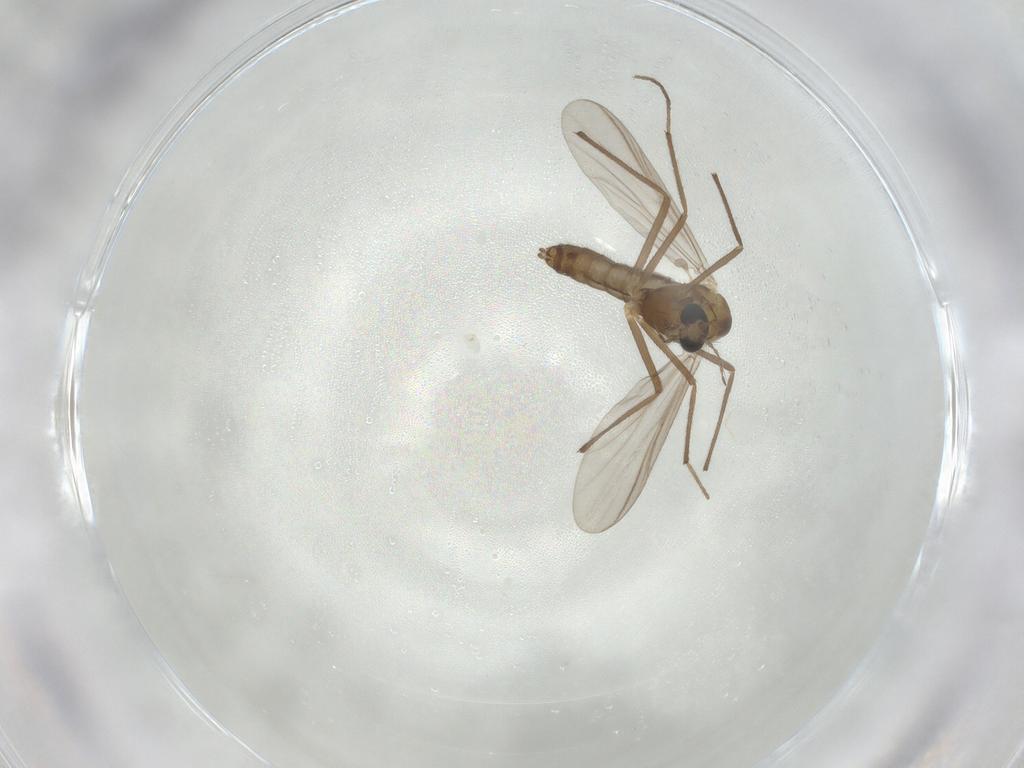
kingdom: Animalia
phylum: Arthropoda
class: Insecta
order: Diptera
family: Chironomidae
